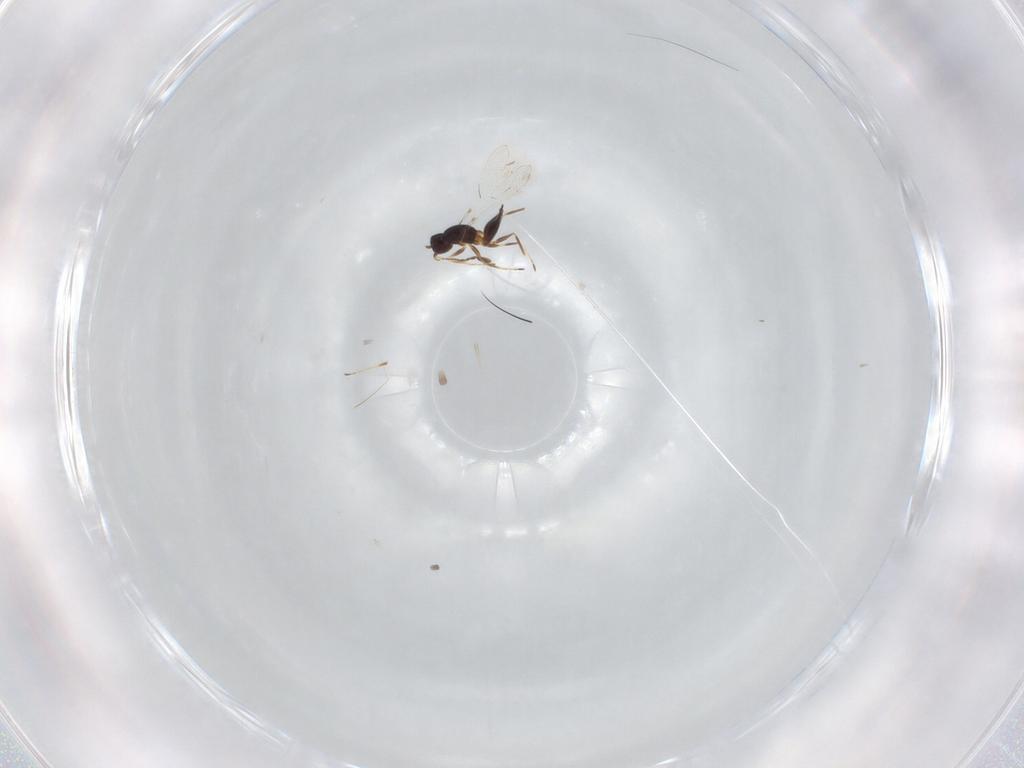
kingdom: Animalia
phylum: Arthropoda
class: Insecta
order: Hymenoptera
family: Mymaridae
